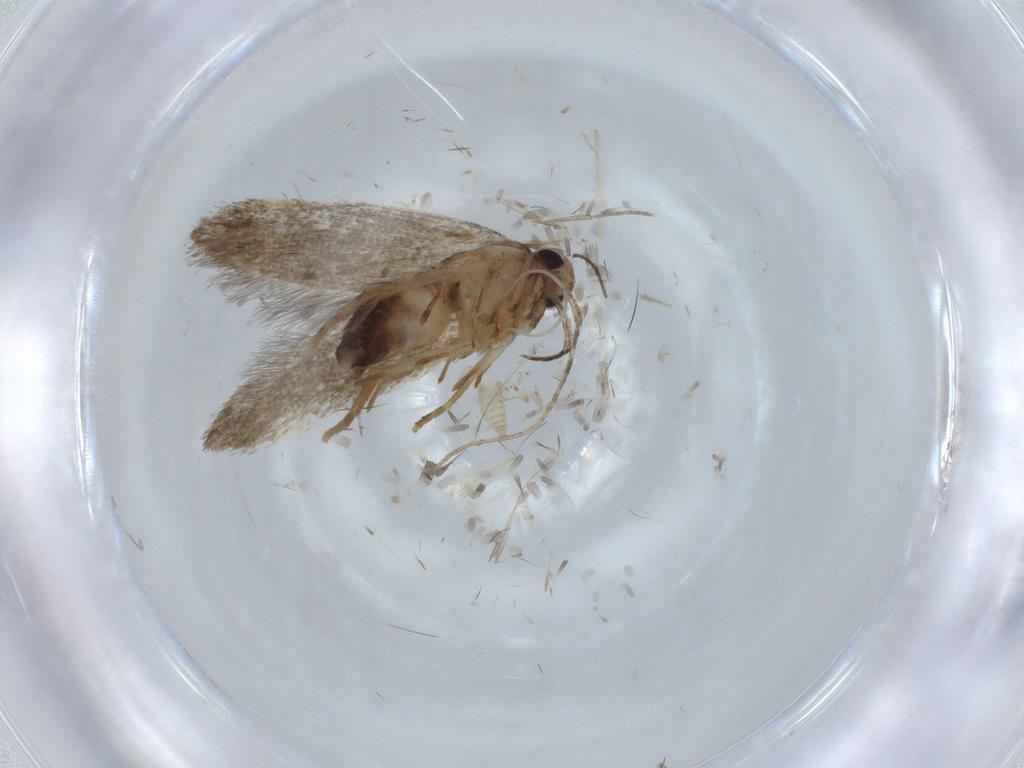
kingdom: Animalia
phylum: Arthropoda
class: Insecta
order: Lepidoptera
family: Cosmopterigidae
